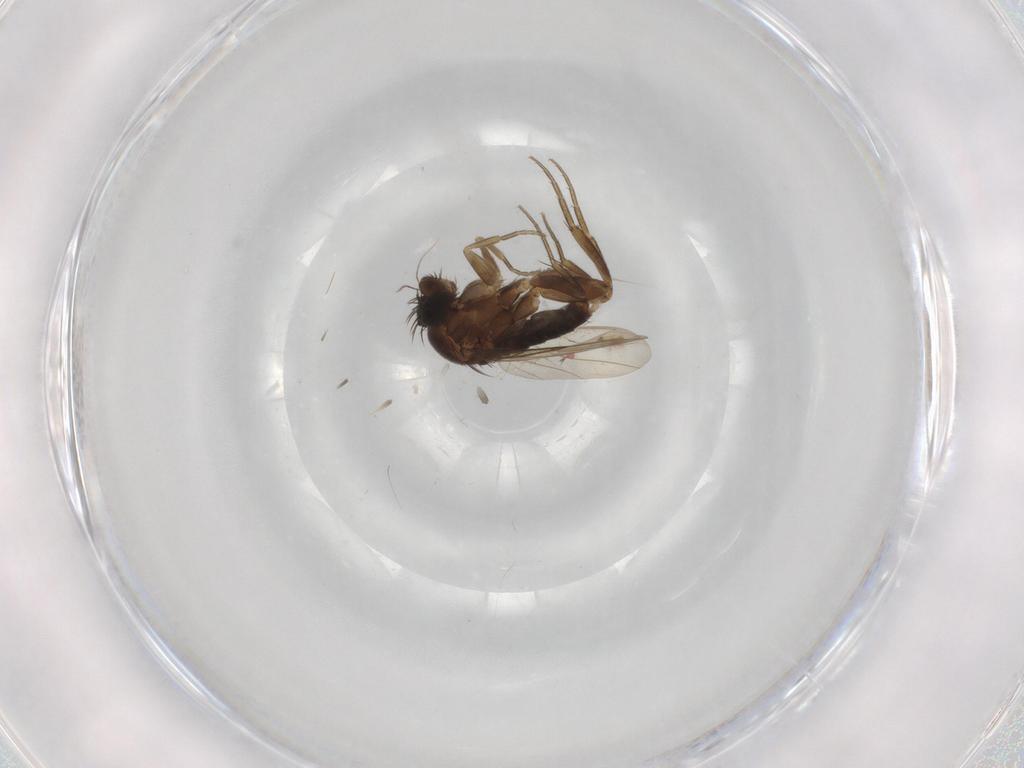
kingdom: Animalia
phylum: Arthropoda
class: Insecta
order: Diptera
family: Phoridae
